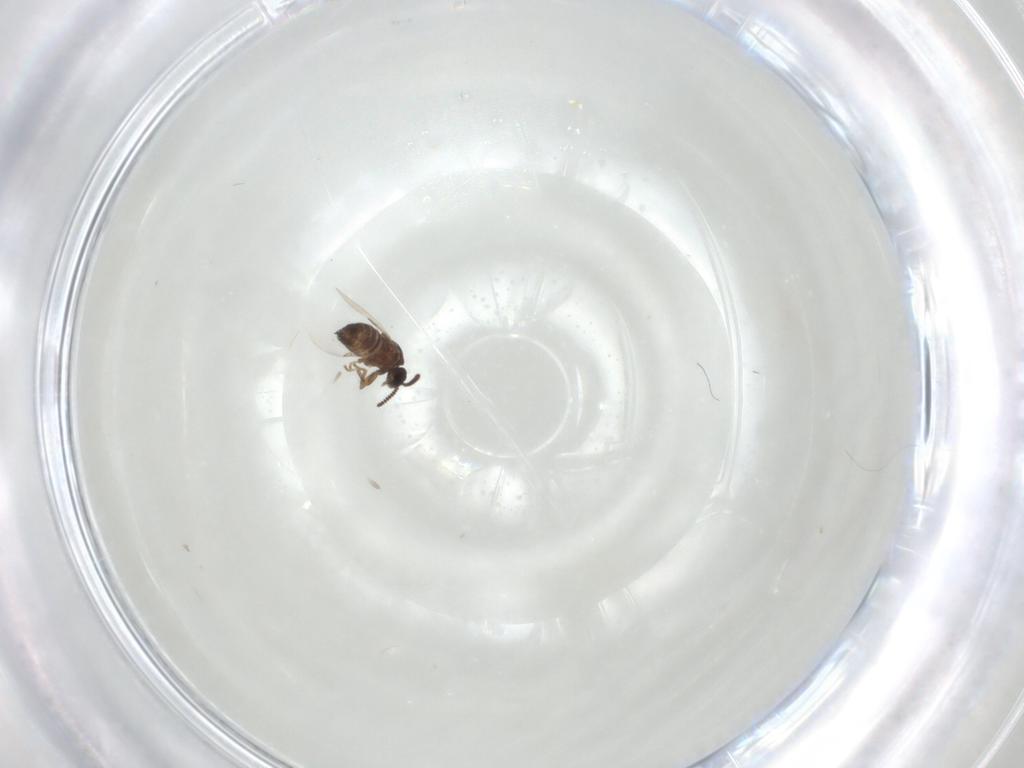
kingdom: Animalia
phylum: Arthropoda
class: Insecta
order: Diptera
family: Scatopsidae
